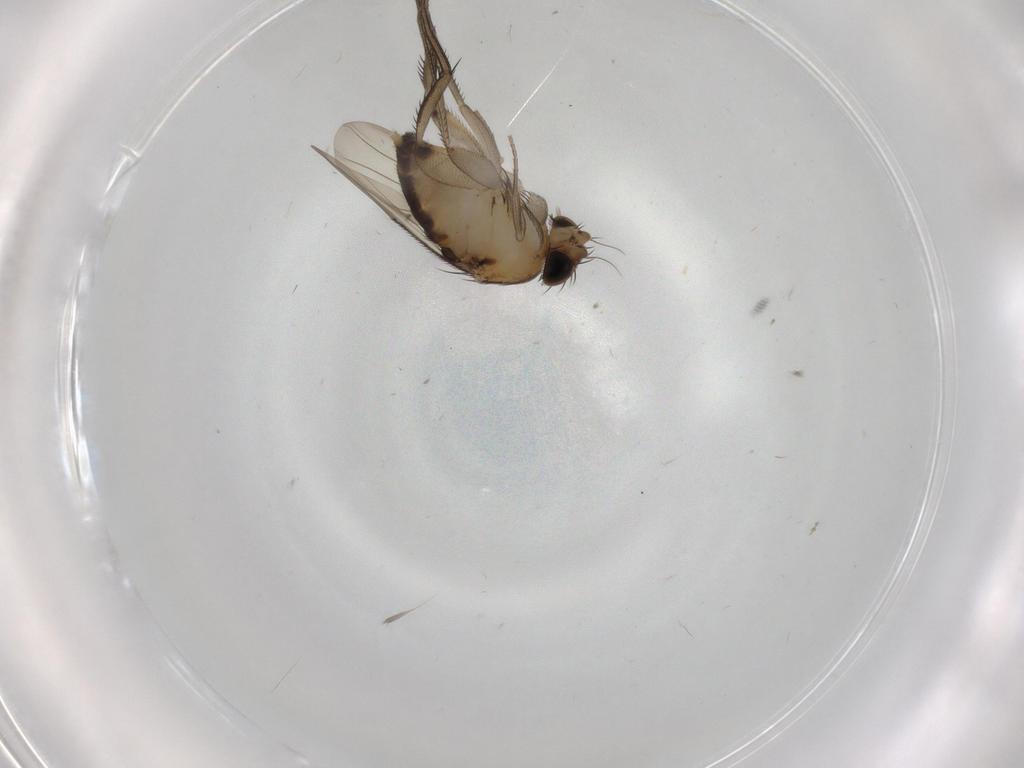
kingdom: Animalia
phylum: Arthropoda
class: Insecta
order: Diptera
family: Phoridae
